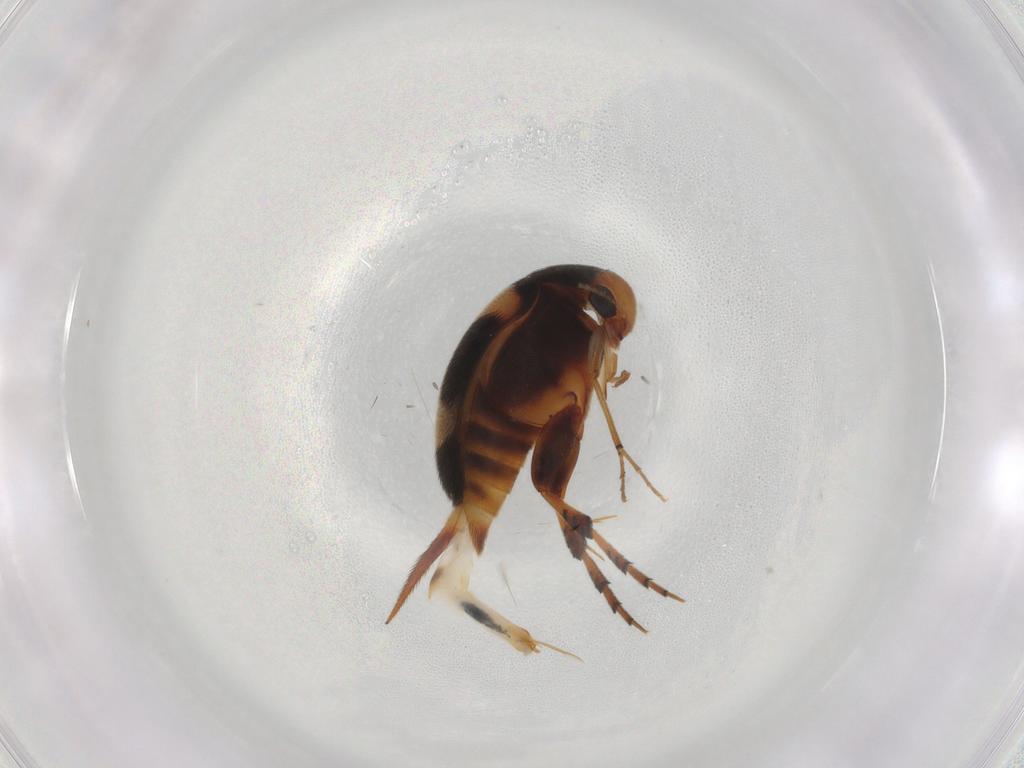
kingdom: Animalia
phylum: Arthropoda
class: Insecta
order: Coleoptera
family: Mordellidae
